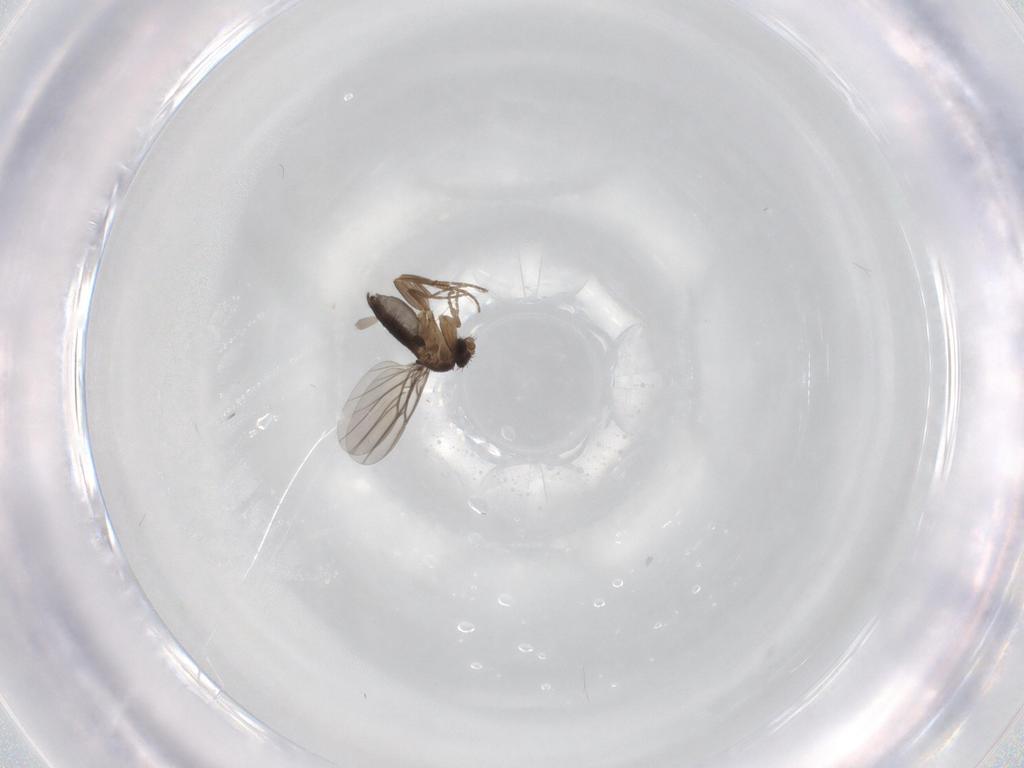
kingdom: Animalia
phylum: Arthropoda
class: Insecta
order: Diptera
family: Phoridae
